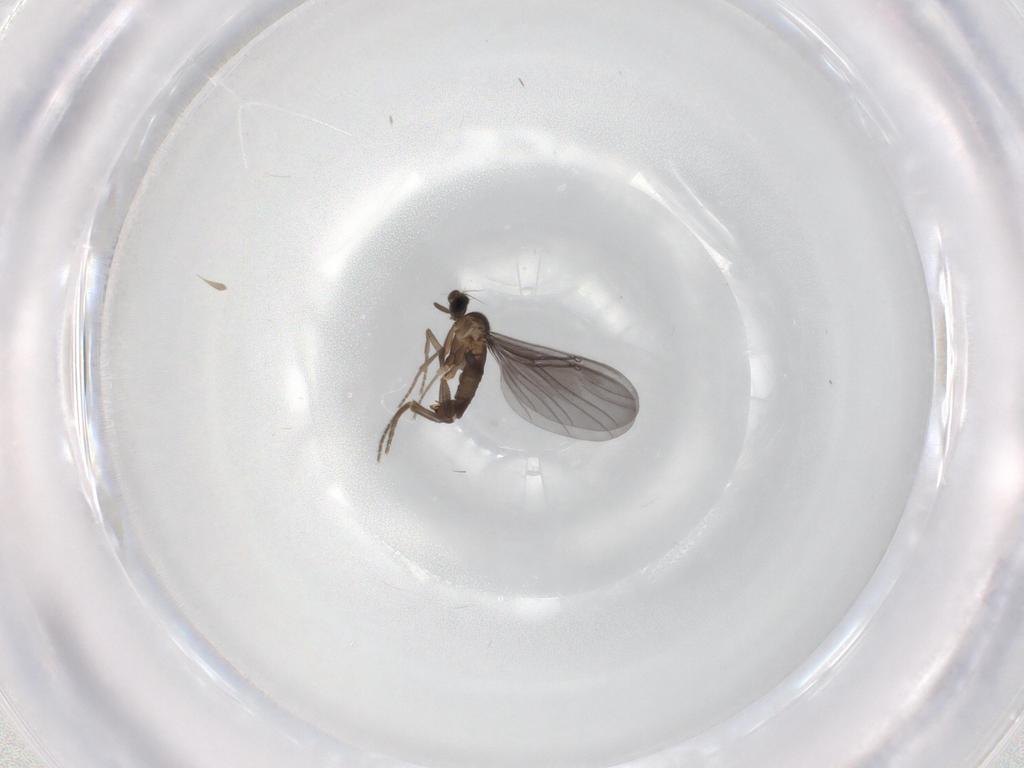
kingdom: Animalia
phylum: Arthropoda
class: Insecta
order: Diptera
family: Phoridae
